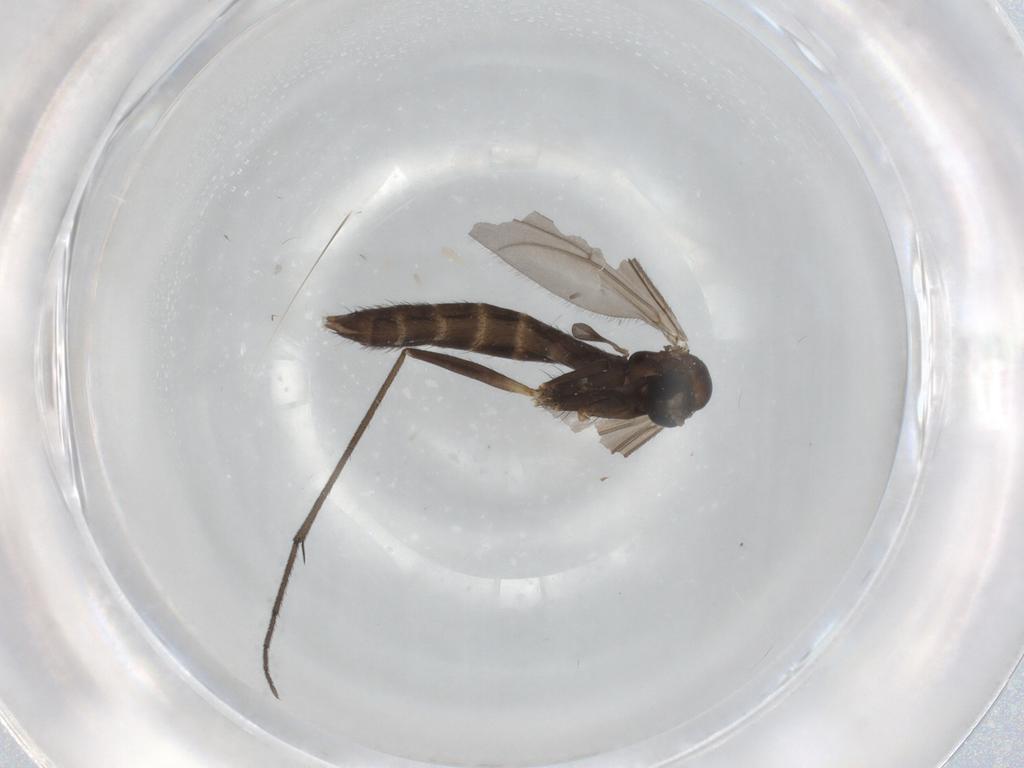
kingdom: Animalia
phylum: Arthropoda
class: Insecta
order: Diptera
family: Ditomyiidae
